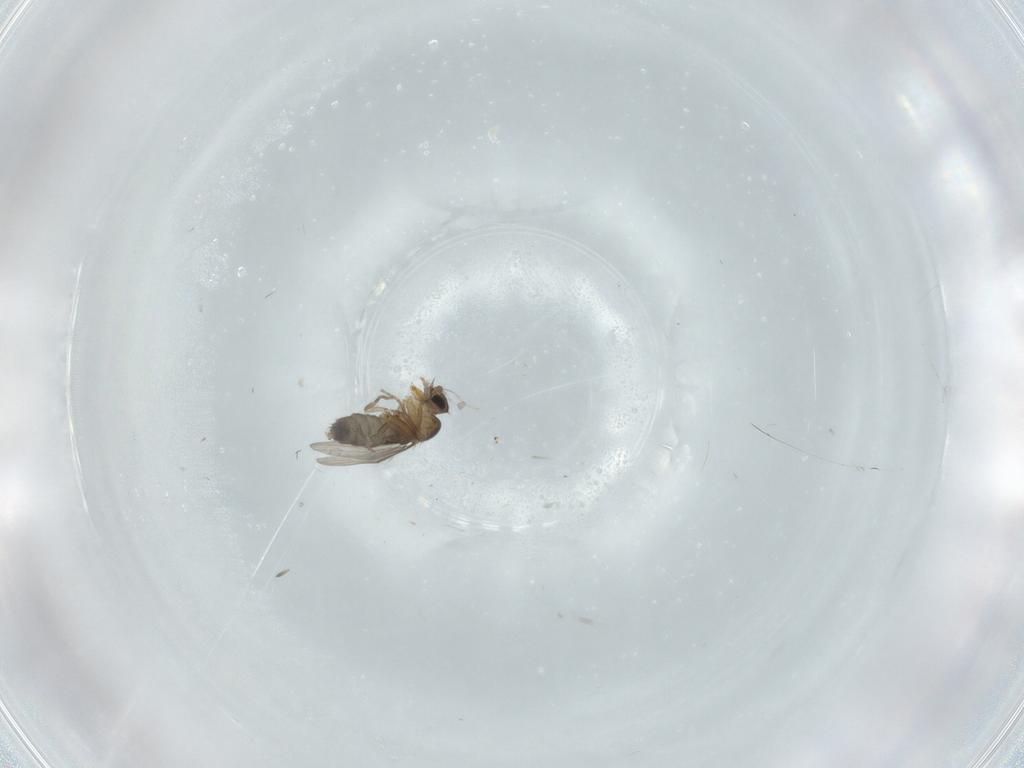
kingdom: Animalia
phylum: Arthropoda
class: Insecta
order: Diptera
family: Phoridae
